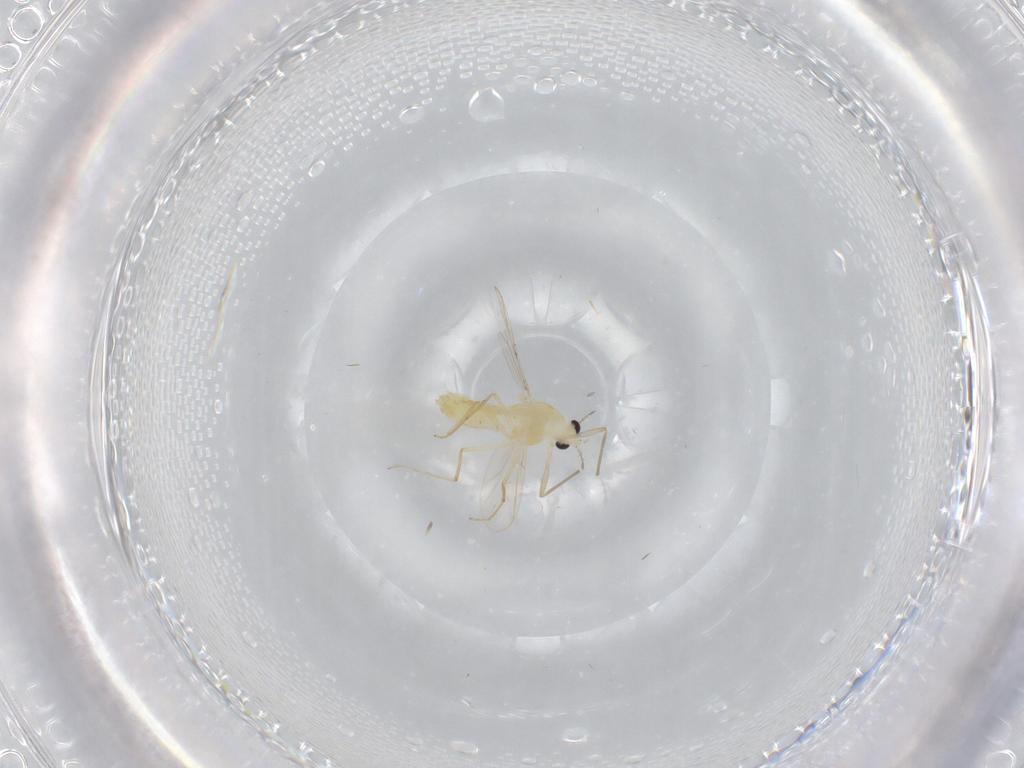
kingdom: Animalia
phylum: Arthropoda
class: Insecta
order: Diptera
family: Chironomidae
